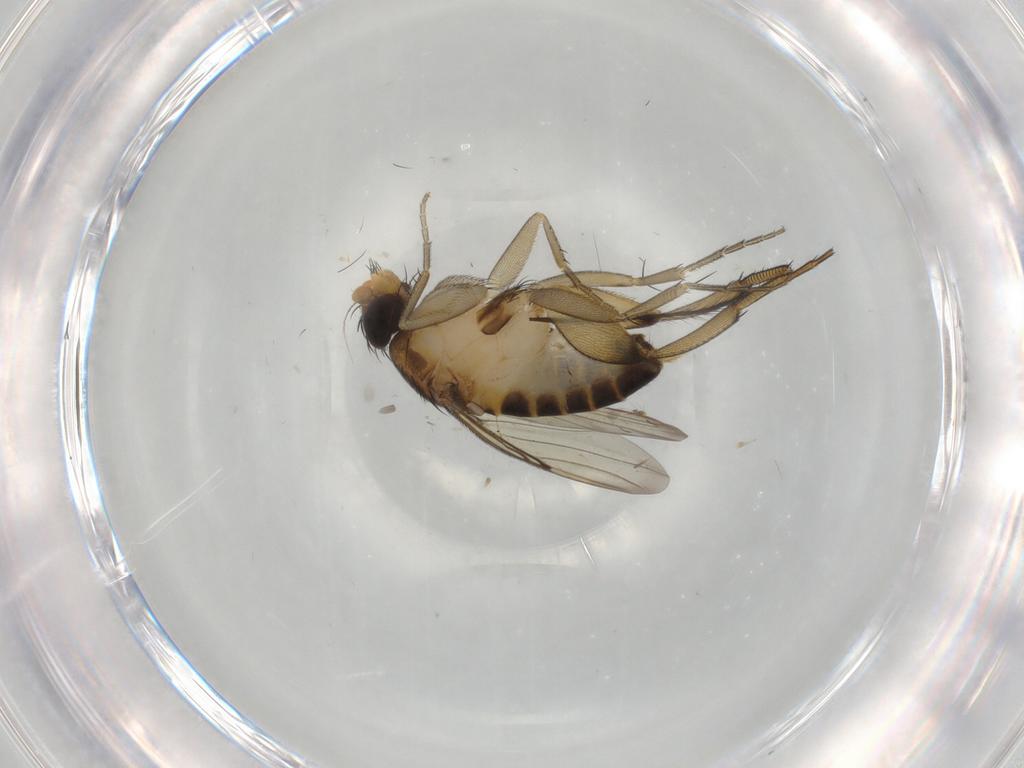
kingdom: Animalia
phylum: Arthropoda
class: Insecta
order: Diptera
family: Phoridae
